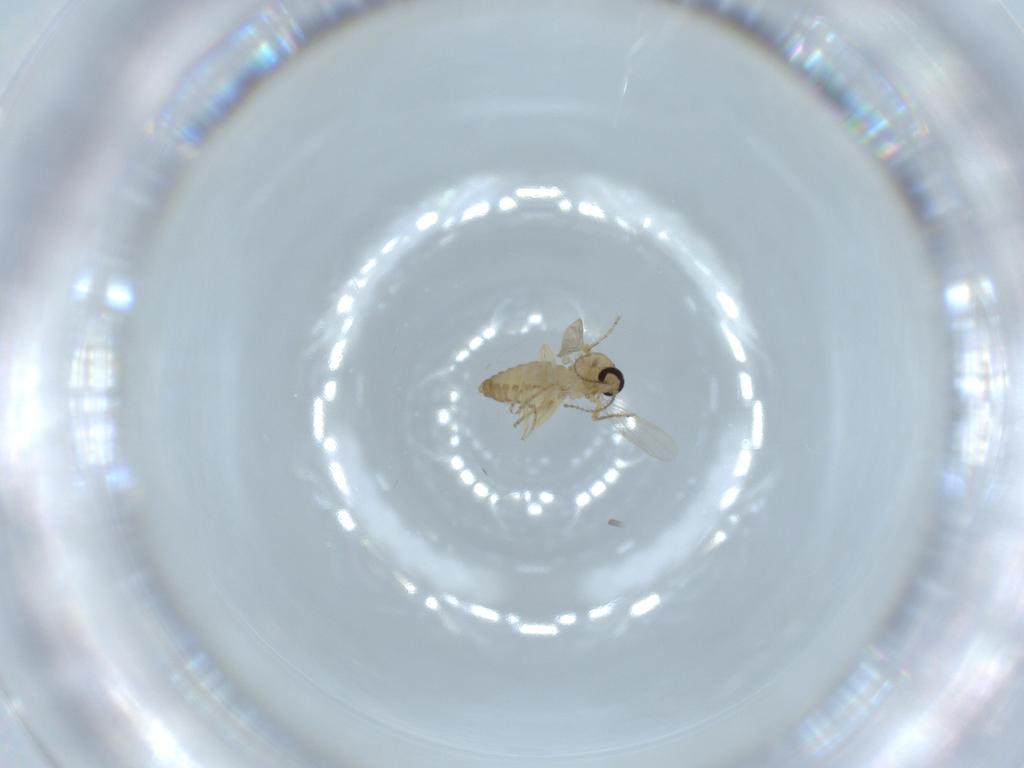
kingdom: Animalia
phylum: Arthropoda
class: Insecta
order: Diptera
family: Ceratopogonidae
